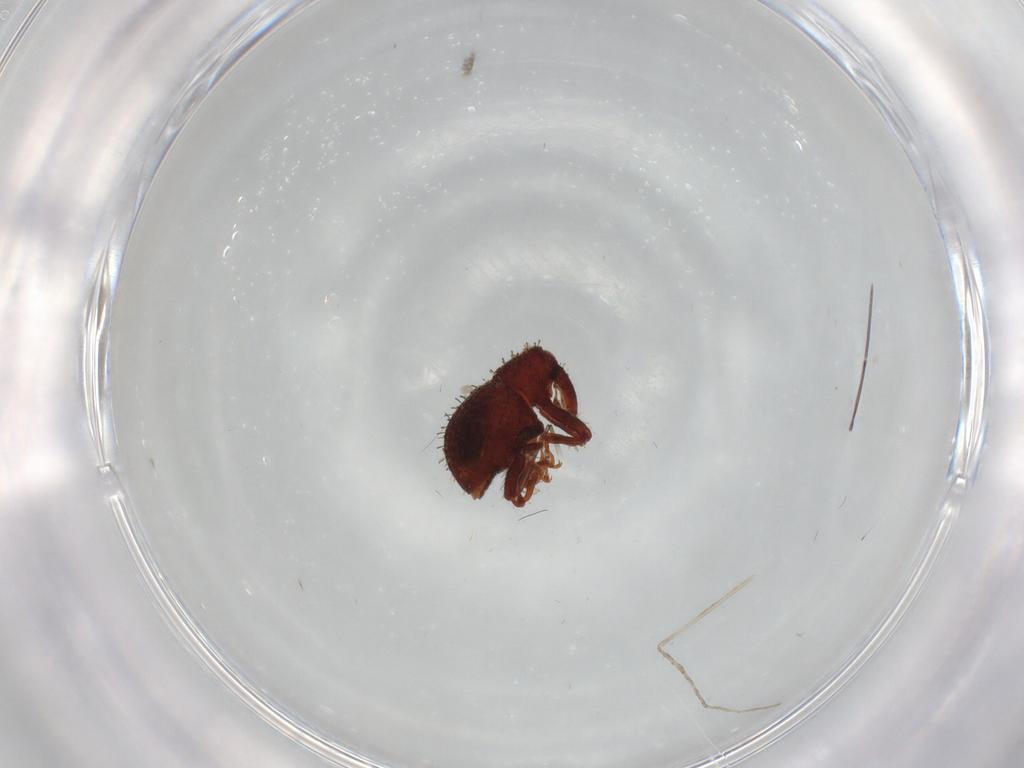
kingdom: Animalia
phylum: Arthropoda
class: Insecta
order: Coleoptera
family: Curculionidae
